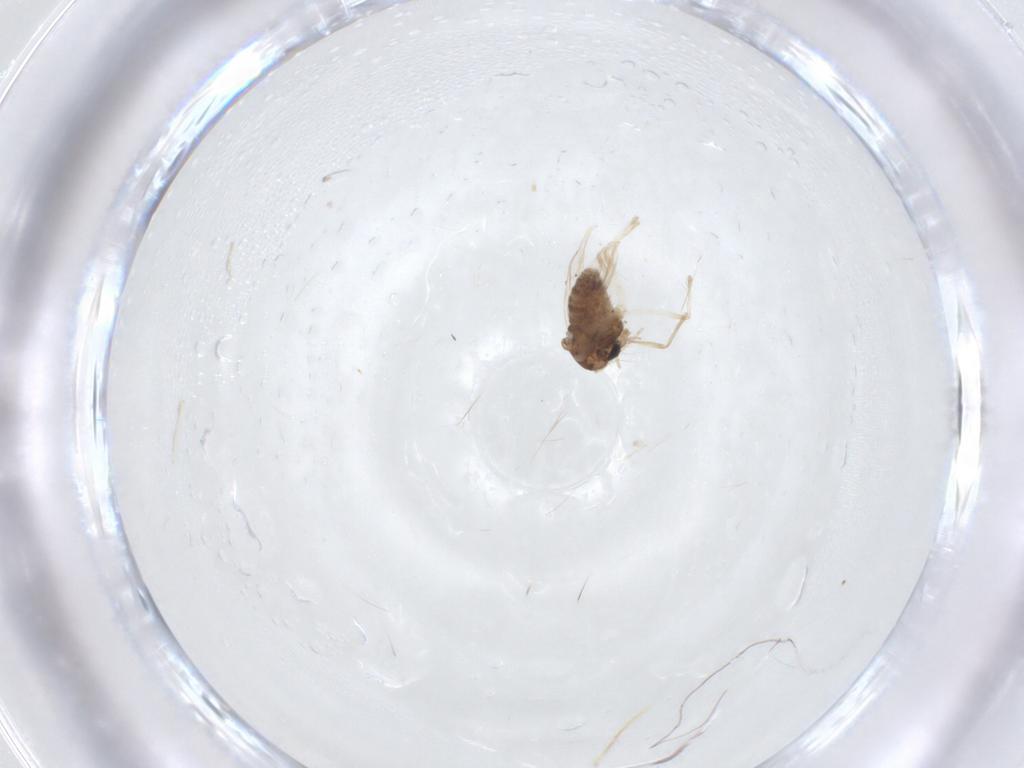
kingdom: Animalia
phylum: Arthropoda
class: Insecta
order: Diptera
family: Chironomidae
